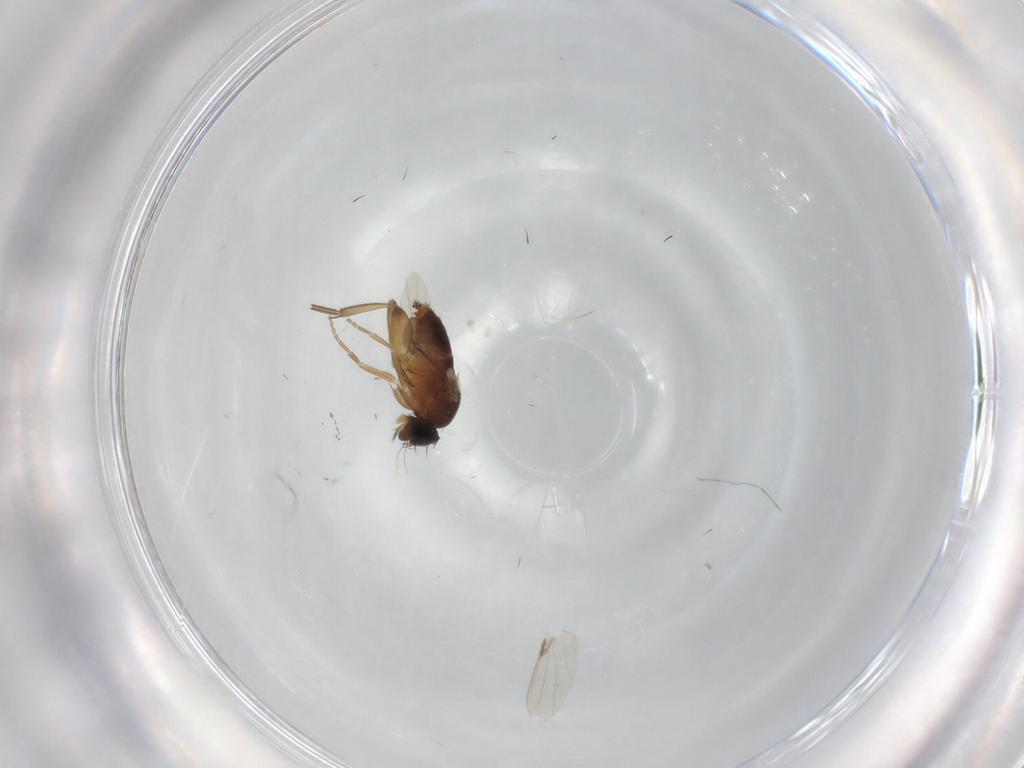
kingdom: Animalia
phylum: Arthropoda
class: Insecta
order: Diptera
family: Phoridae
